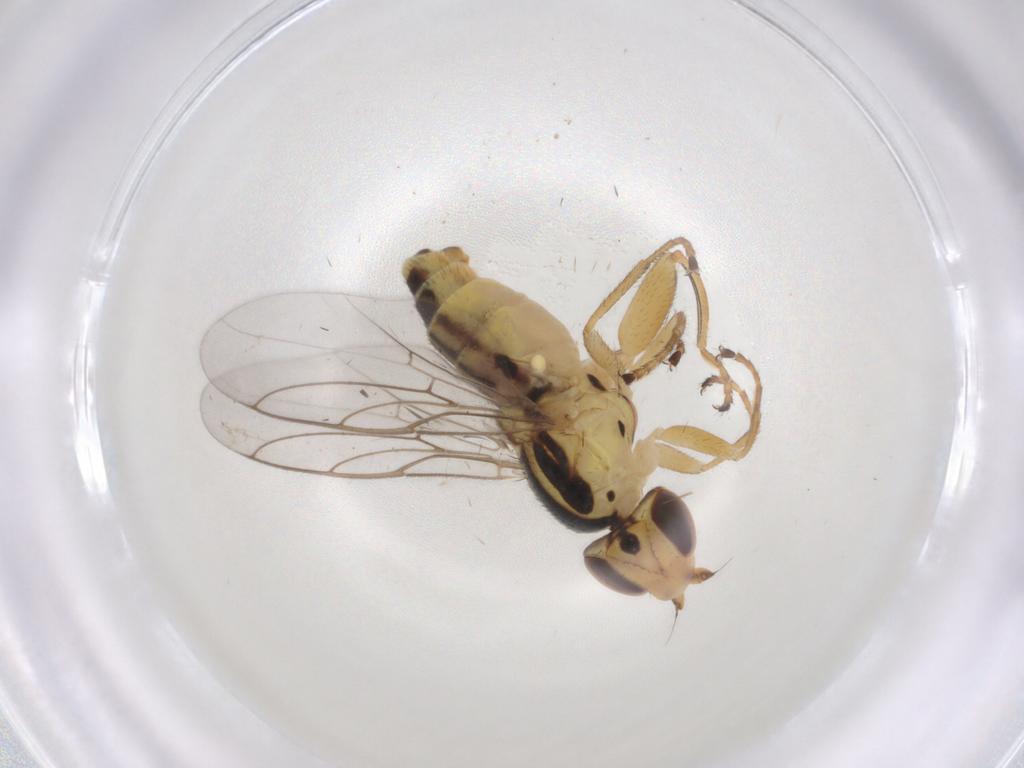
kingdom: Animalia
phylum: Arthropoda
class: Insecta
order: Diptera
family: Chloropidae
